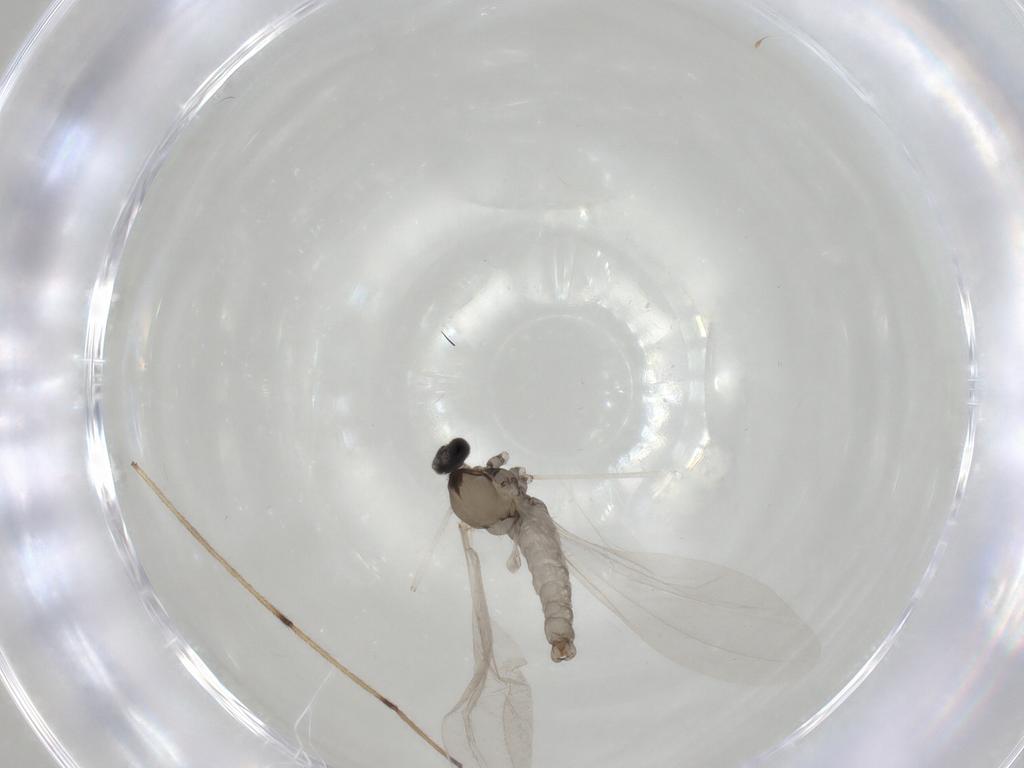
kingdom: Animalia
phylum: Arthropoda
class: Insecta
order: Diptera
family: Cecidomyiidae
